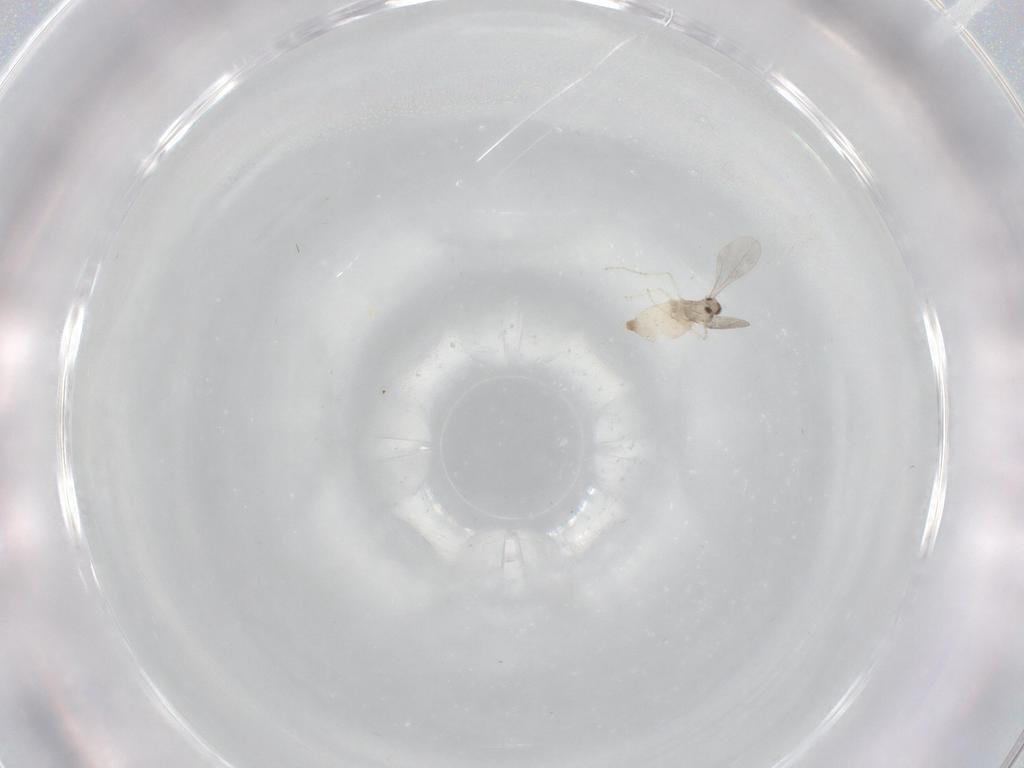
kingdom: Animalia
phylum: Arthropoda
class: Insecta
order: Diptera
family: Cecidomyiidae
